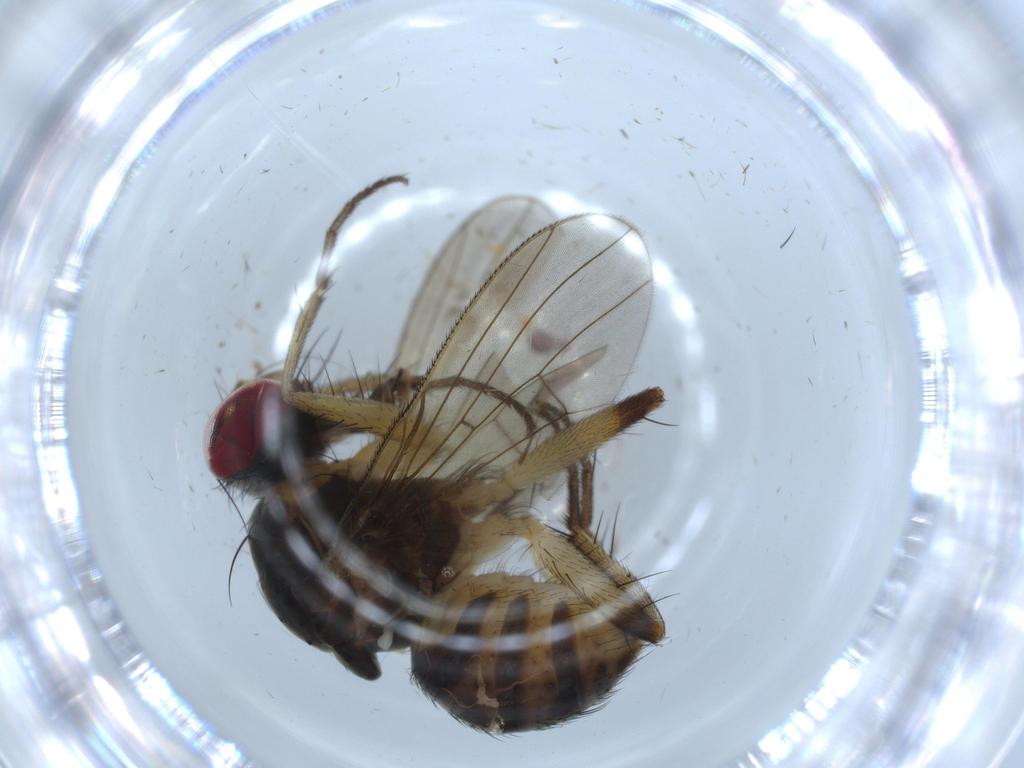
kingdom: Animalia
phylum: Arthropoda
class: Insecta
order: Diptera
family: Muscidae
